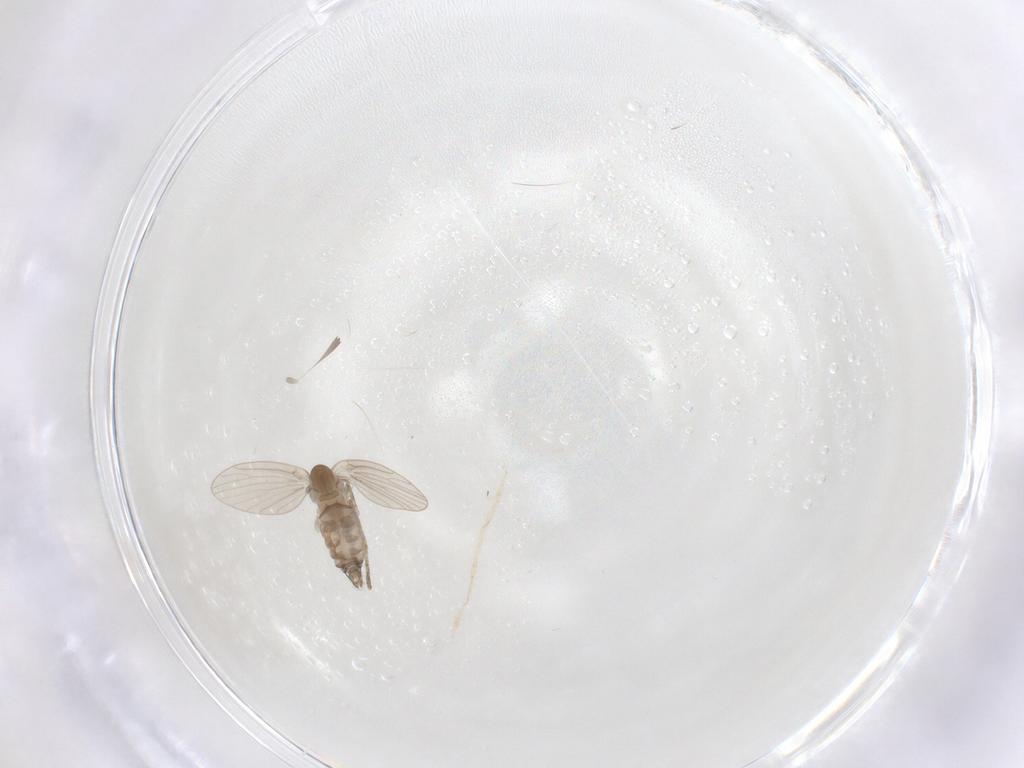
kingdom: Animalia
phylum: Arthropoda
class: Insecta
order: Diptera
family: Psychodidae
